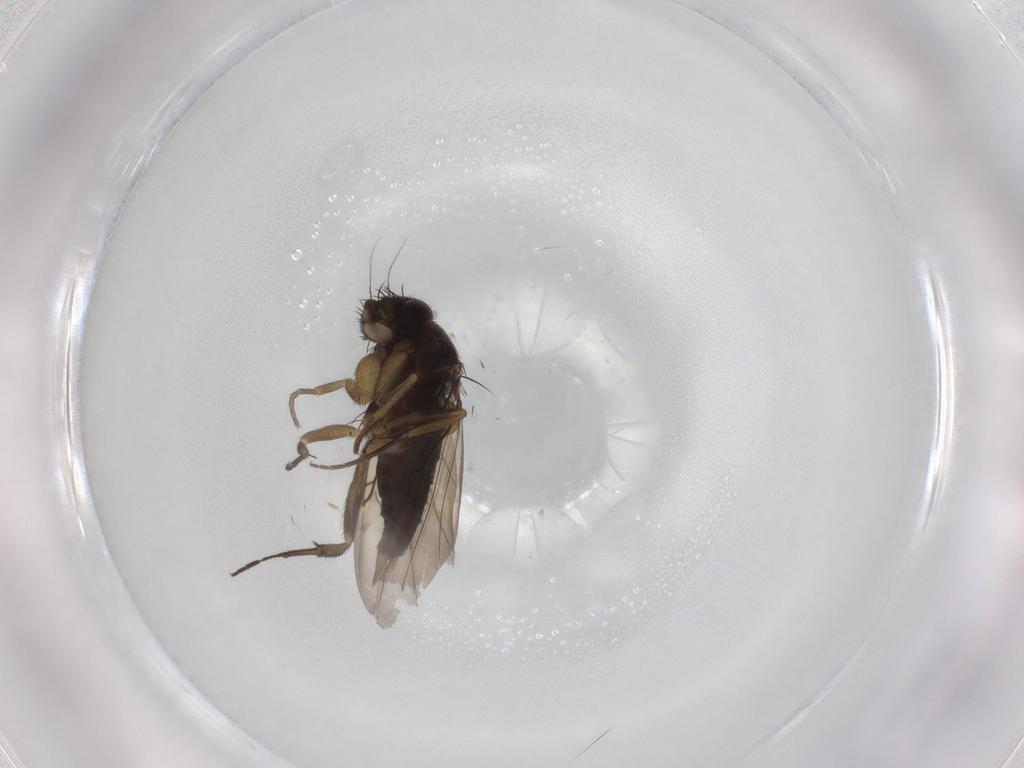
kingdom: Animalia
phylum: Arthropoda
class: Insecta
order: Diptera
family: Phoridae
